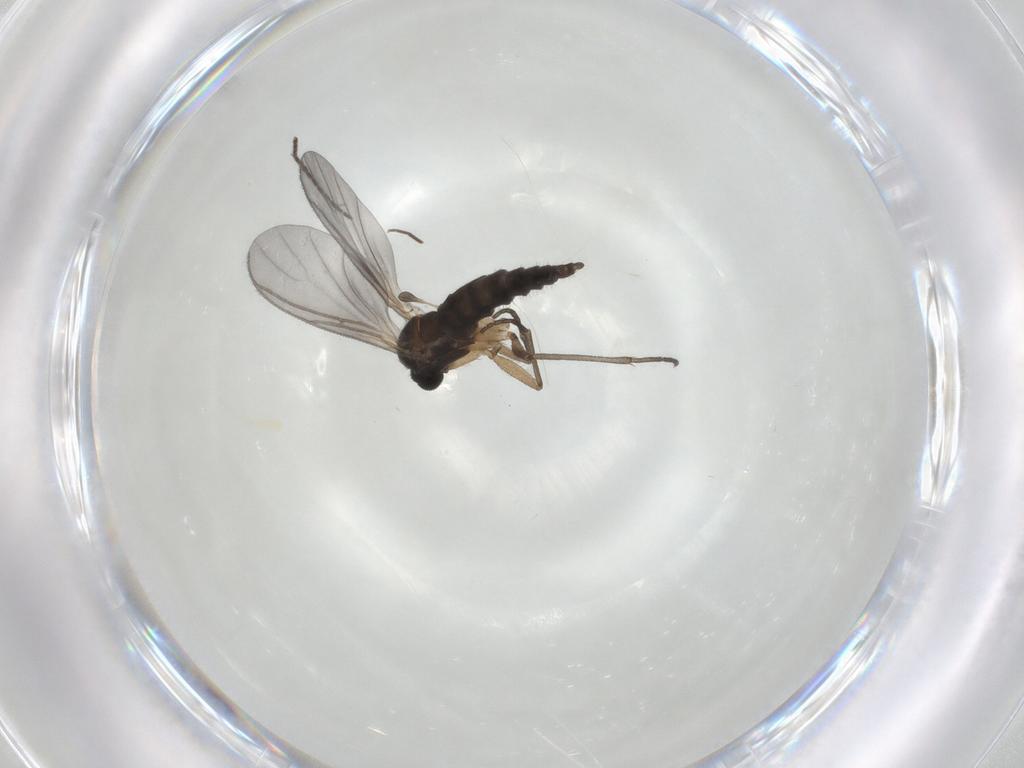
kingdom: Animalia
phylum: Arthropoda
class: Insecta
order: Diptera
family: Sciaridae
